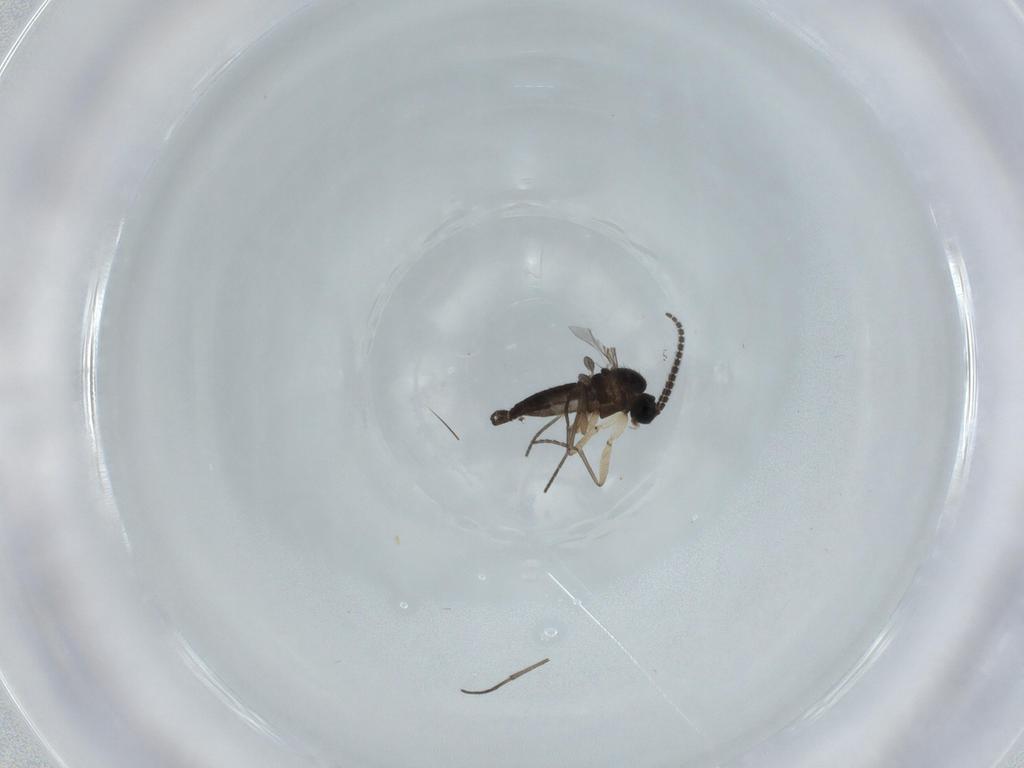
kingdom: Animalia
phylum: Arthropoda
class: Insecta
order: Diptera
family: Sciaridae
